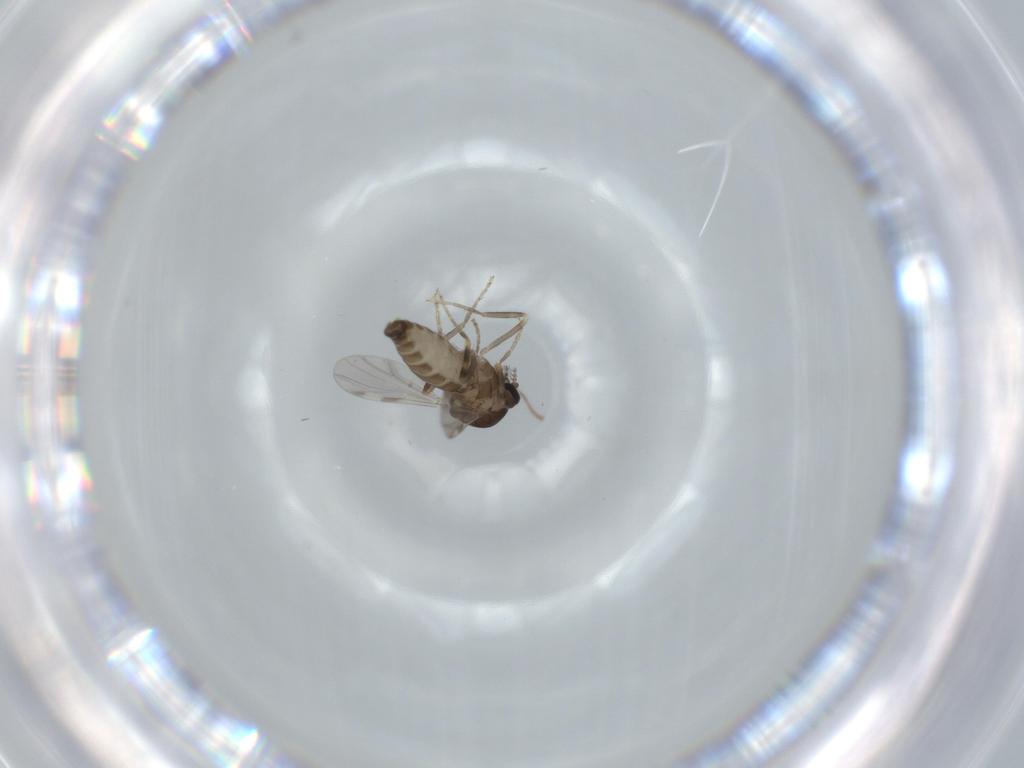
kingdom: Animalia
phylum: Arthropoda
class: Insecta
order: Diptera
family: Ceratopogonidae
